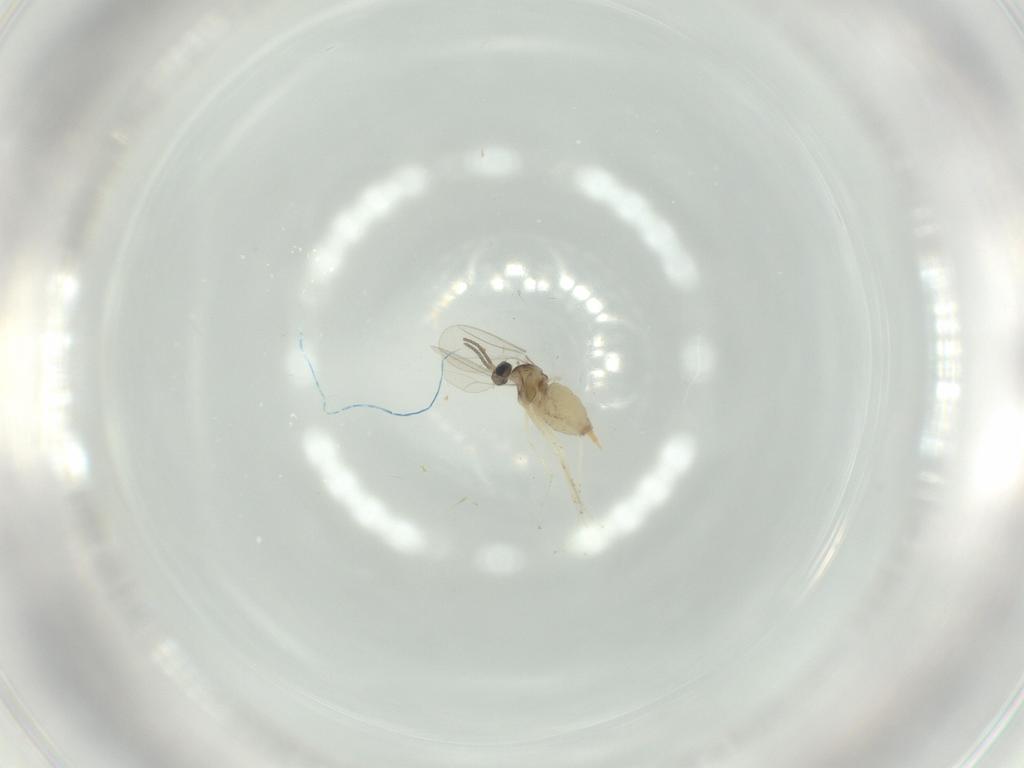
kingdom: Animalia
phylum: Arthropoda
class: Insecta
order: Diptera
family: Cecidomyiidae
